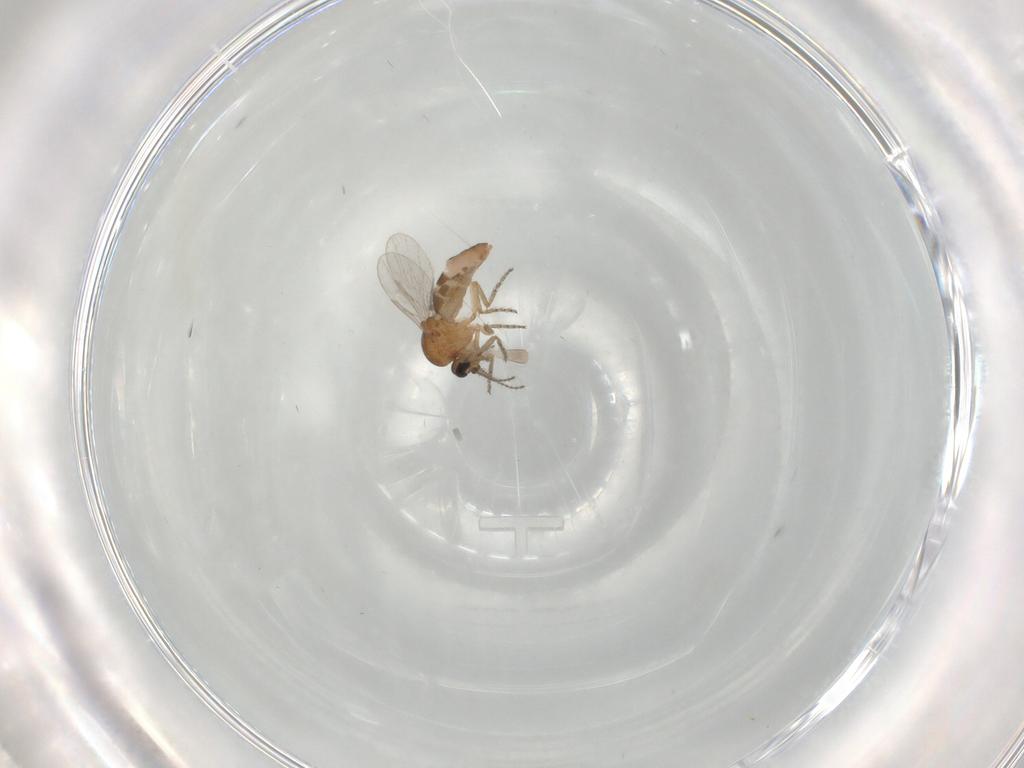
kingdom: Animalia
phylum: Arthropoda
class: Insecta
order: Diptera
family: Ceratopogonidae
